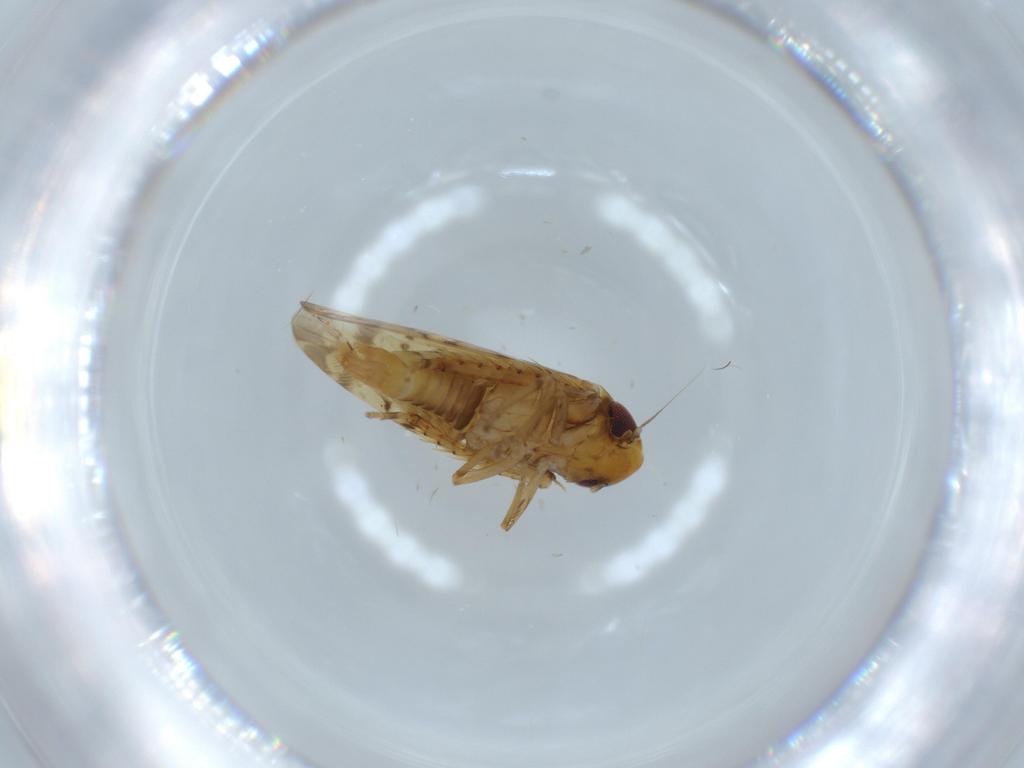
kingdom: Animalia
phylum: Arthropoda
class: Insecta
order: Hemiptera
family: Cicadellidae
